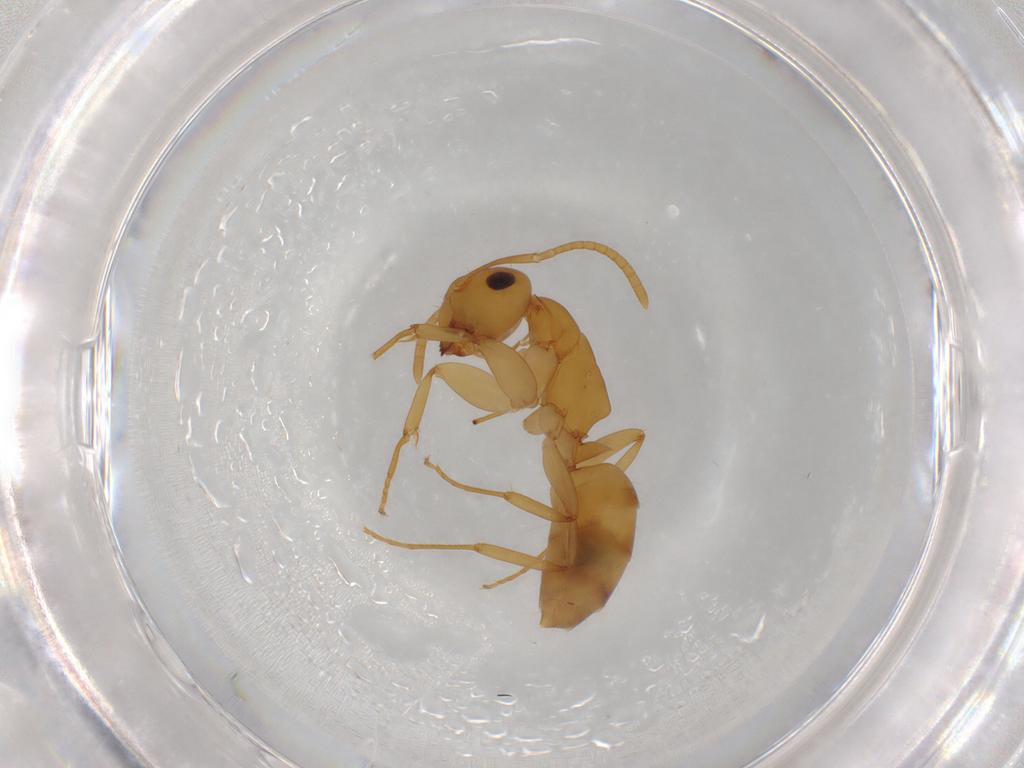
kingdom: Animalia
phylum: Arthropoda
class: Insecta
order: Hymenoptera
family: Formicidae
